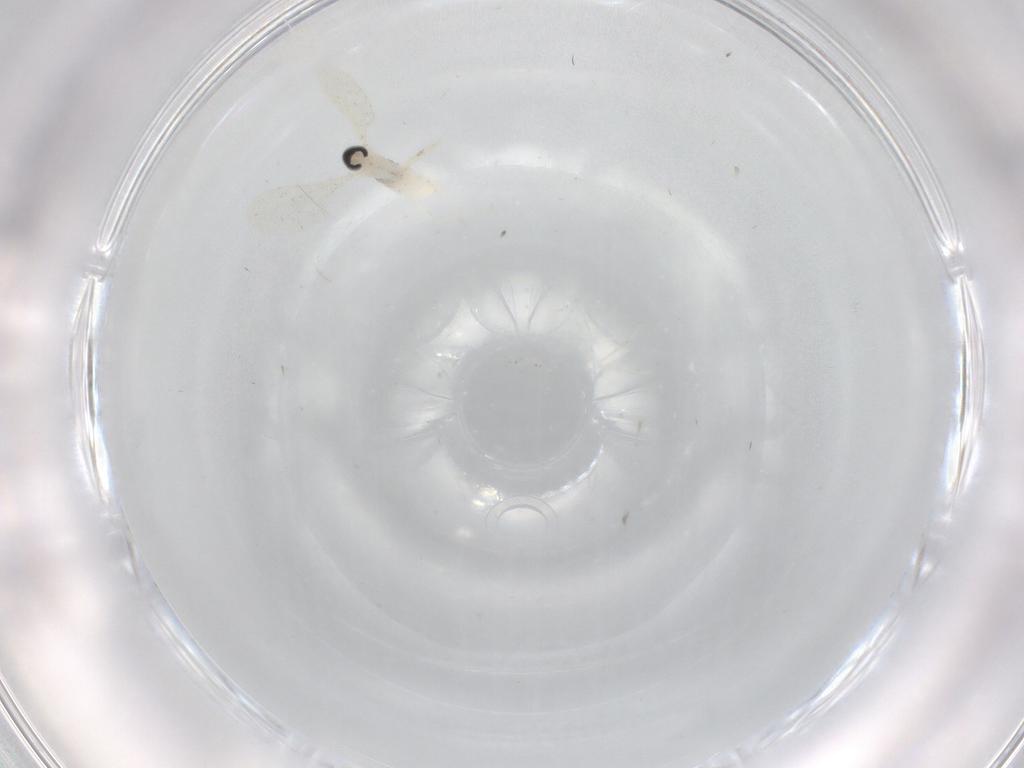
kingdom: Animalia
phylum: Arthropoda
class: Insecta
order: Diptera
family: Cecidomyiidae
